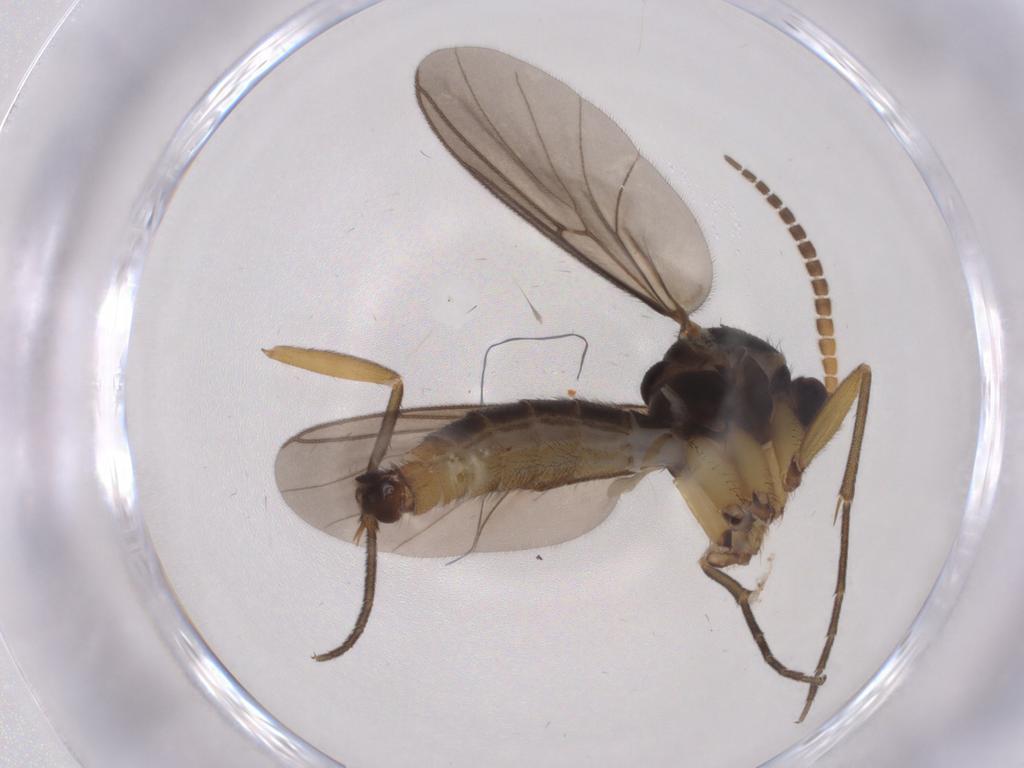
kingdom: Animalia
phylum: Arthropoda
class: Insecta
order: Diptera
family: Mycetophilidae
